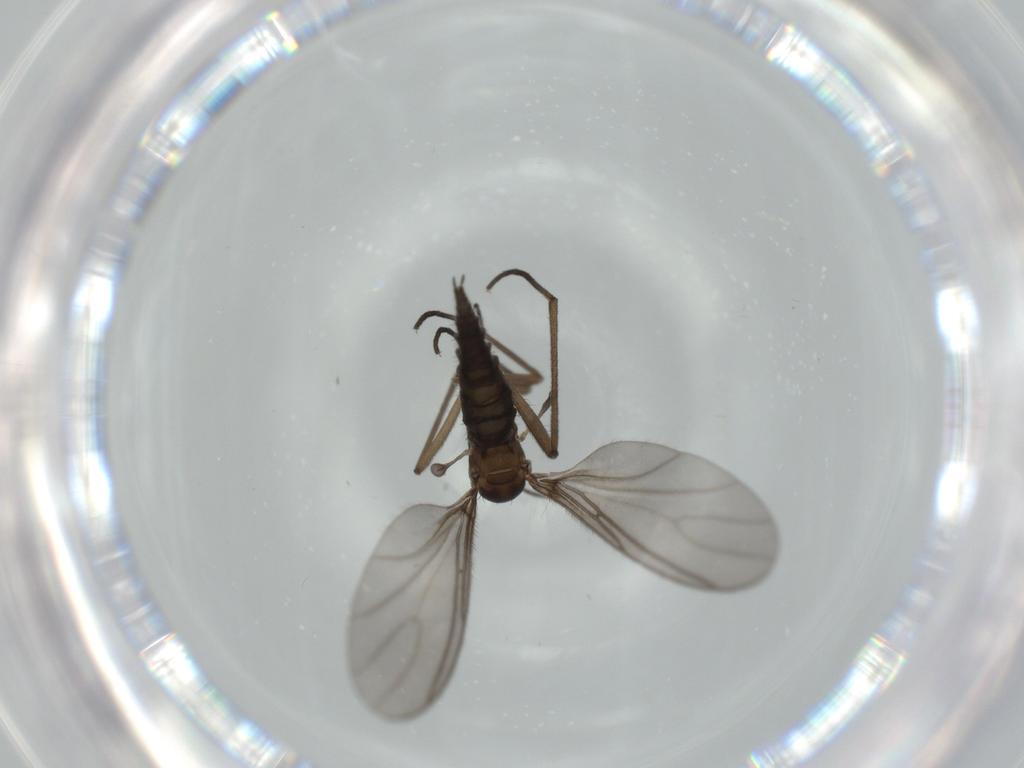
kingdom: Animalia
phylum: Arthropoda
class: Insecta
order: Diptera
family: Sciaridae
